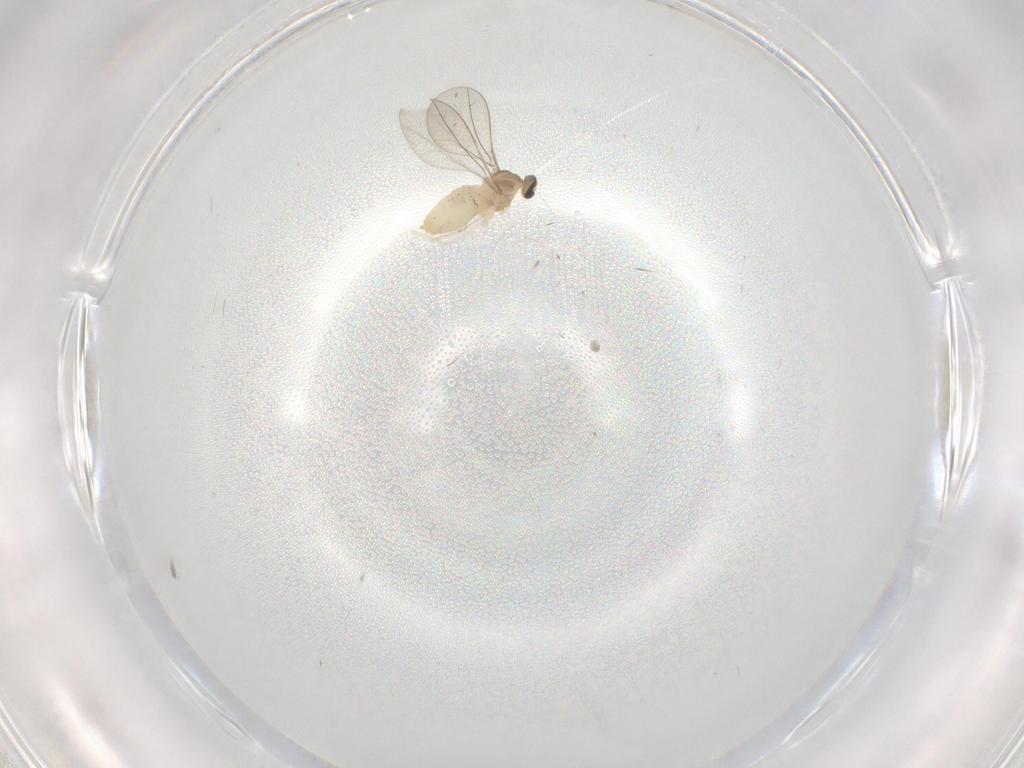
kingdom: Animalia
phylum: Arthropoda
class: Insecta
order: Diptera
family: Cecidomyiidae
